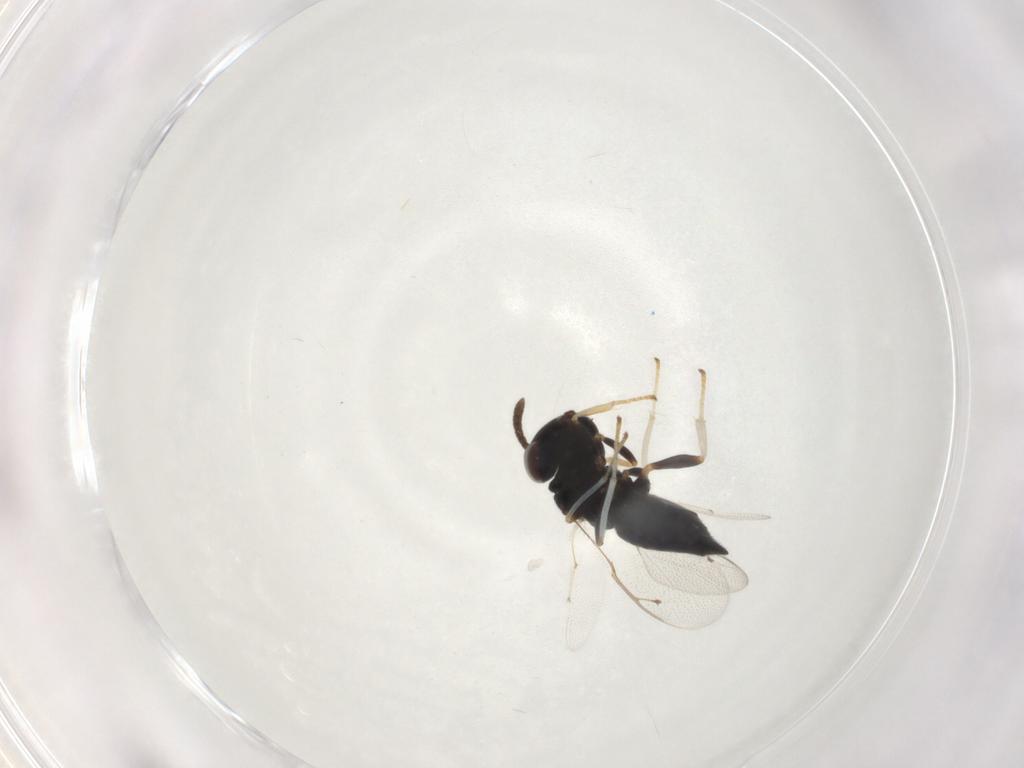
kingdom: Animalia
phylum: Arthropoda
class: Insecta
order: Hymenoptera
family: Pteromalidae
